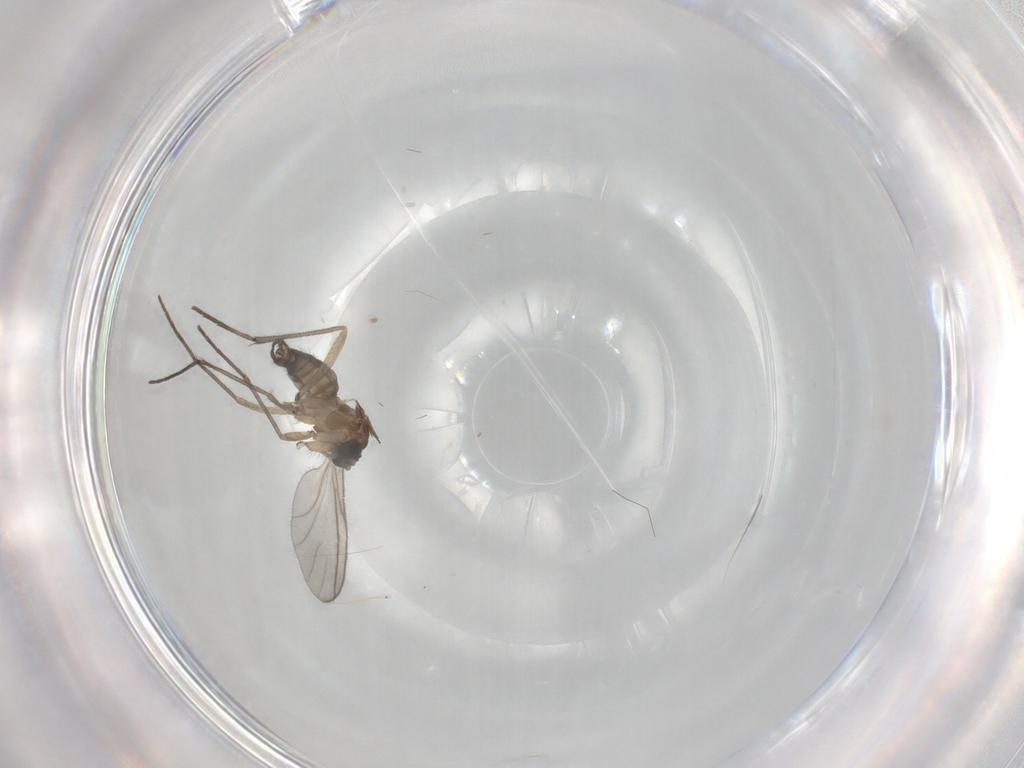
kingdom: Animalia
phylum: Arthropoda
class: Insecta
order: Diptera
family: Sciaridae
